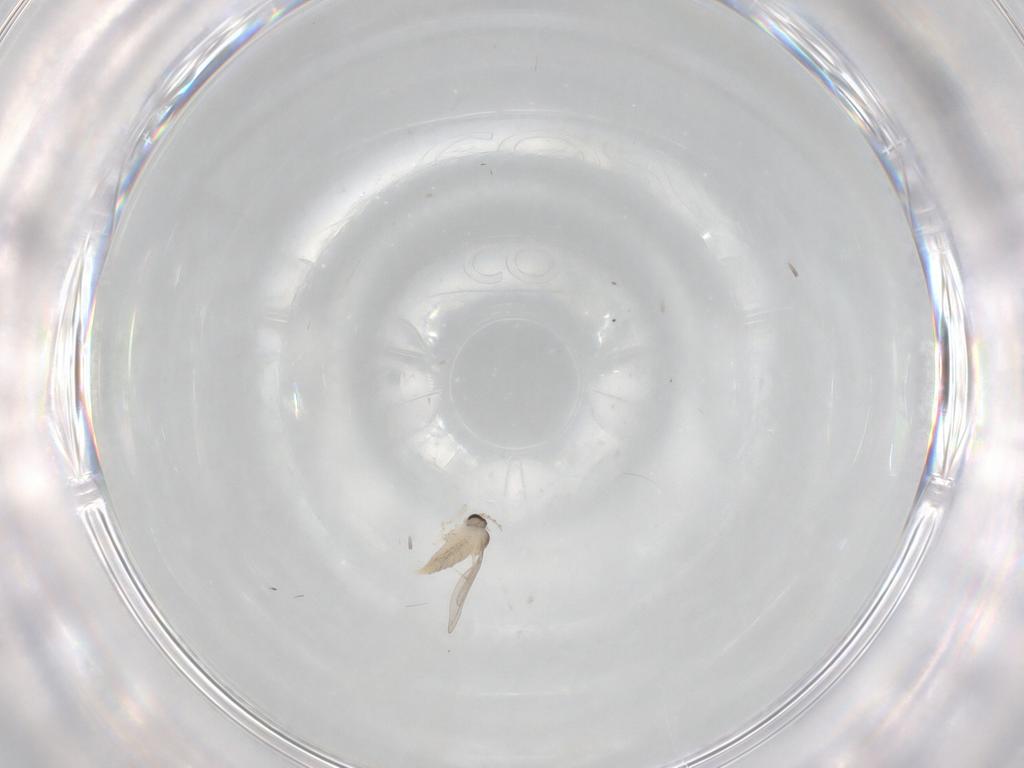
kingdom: Animalia
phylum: Arthropoda
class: Insecta
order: Diptera
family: Cecidomyiidae
